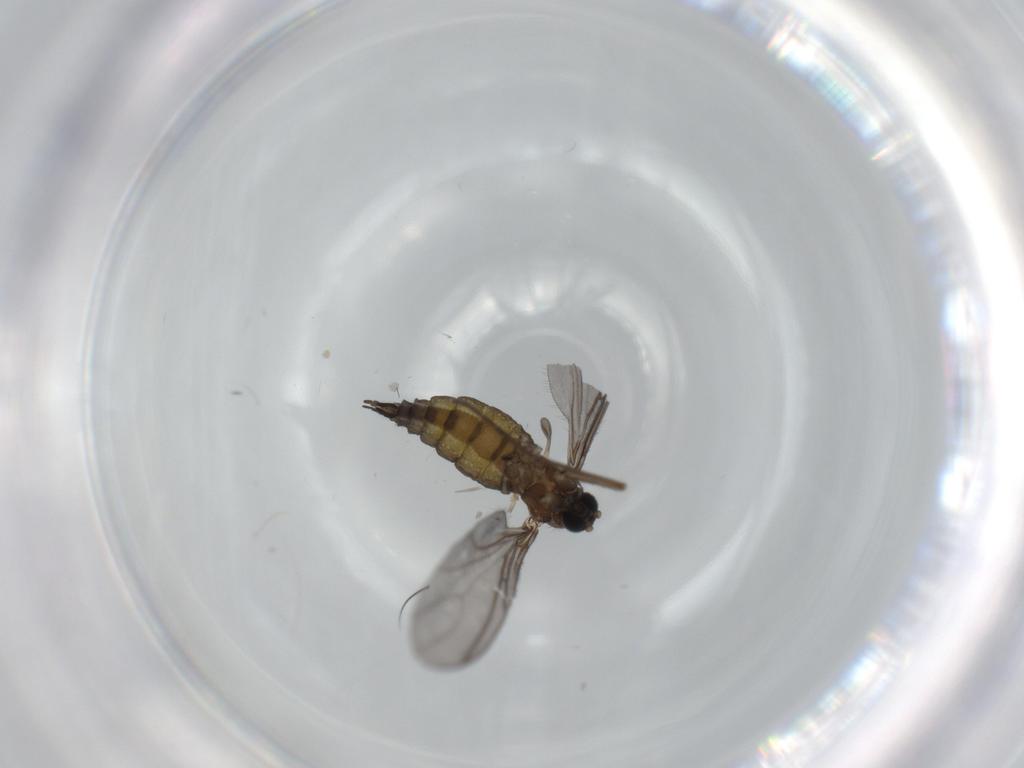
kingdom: Animalia
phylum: Arthropoda
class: Insecta
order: Diptera
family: Sciaridae
